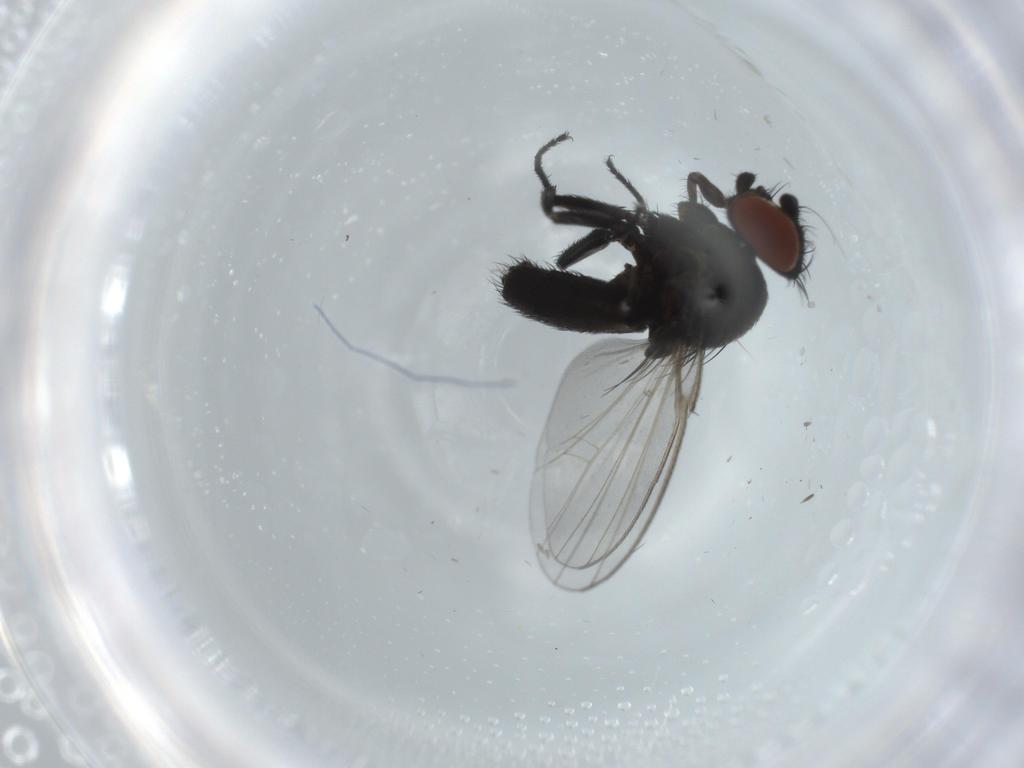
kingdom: Animalia
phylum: Arthropoda
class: Insecta
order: Diptera
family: Milichiidae
